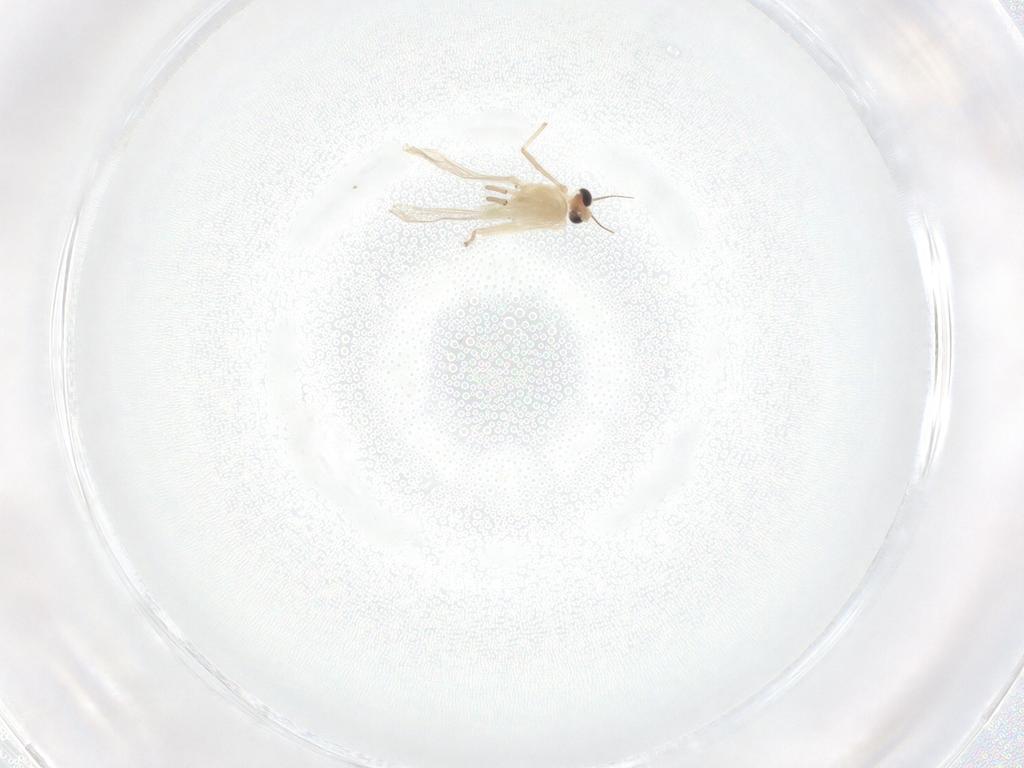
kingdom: Animalia
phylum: Arthropoda
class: Insecta
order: Diptera
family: Chironomidae
